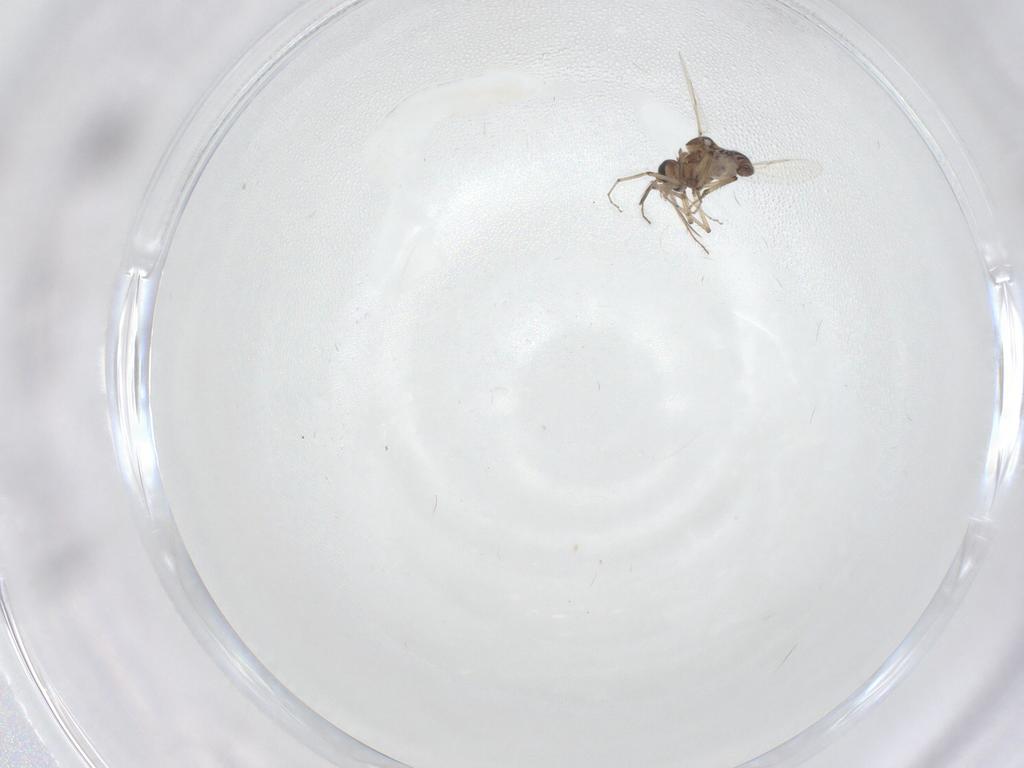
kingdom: Animalia
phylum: Arthropoda
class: Insecta
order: Diptera
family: Ceratopogonidae
